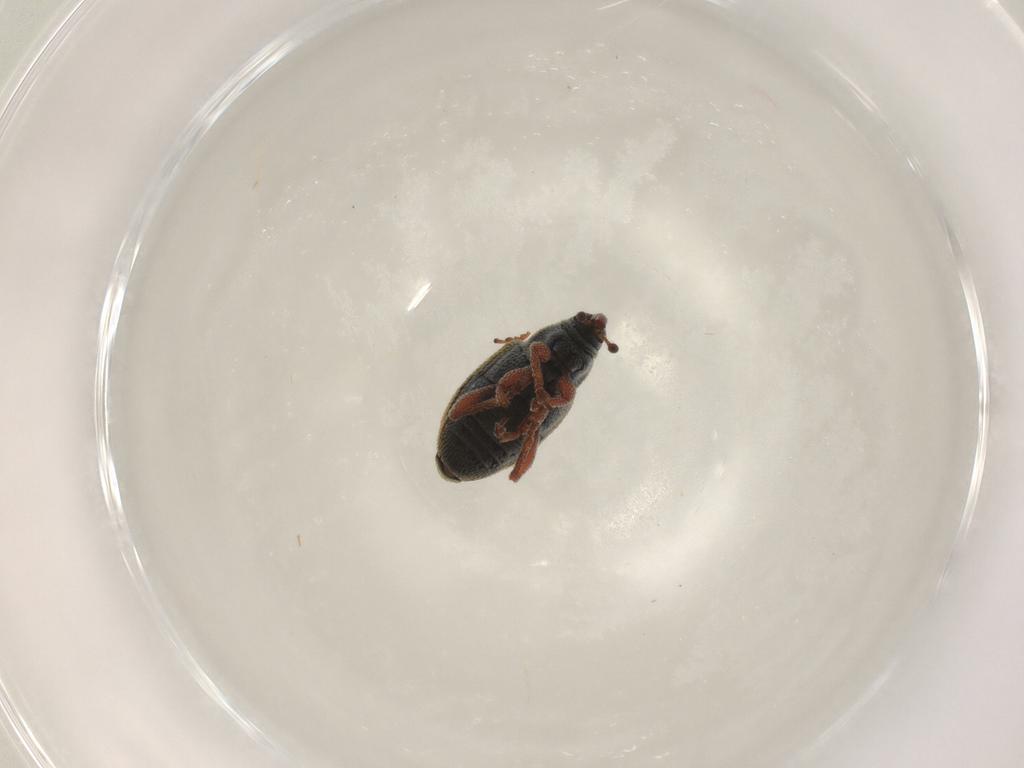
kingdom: Animalia
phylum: Arthropoda
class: Insecta
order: Coleoptera
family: Curculionidae
